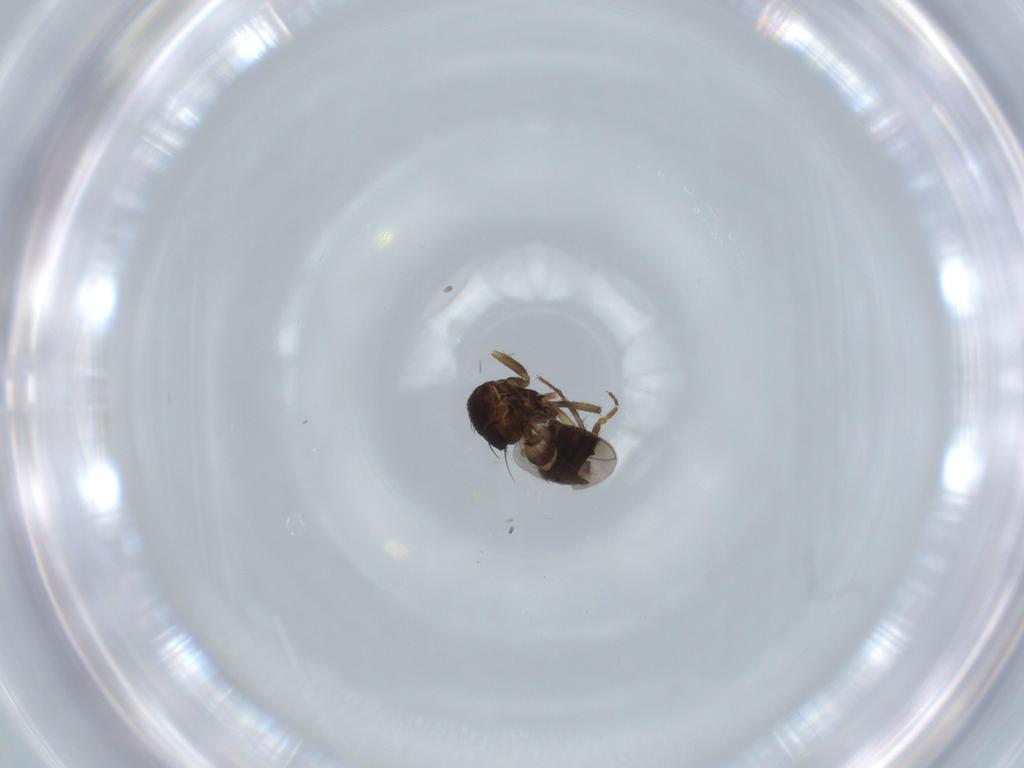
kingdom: Animalia
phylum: Arthropoda
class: Insecta
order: Diptera
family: Sphaeroceridae
